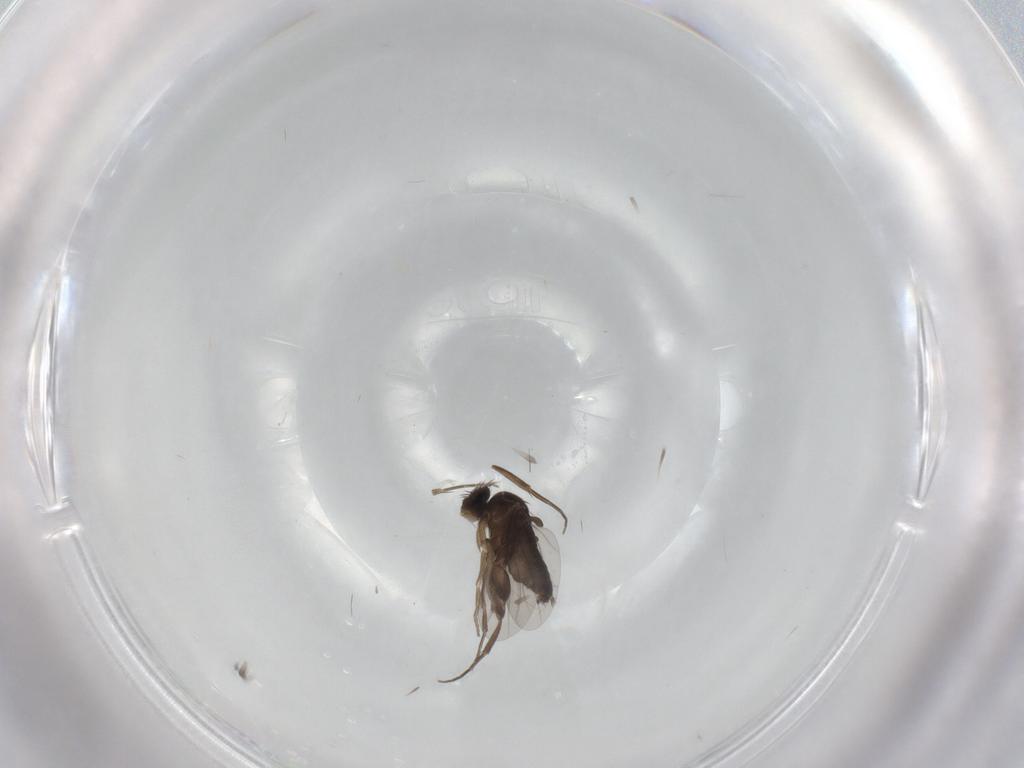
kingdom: Animalia
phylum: Arthropoda
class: Insecta
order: Diptera
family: Phoridae
